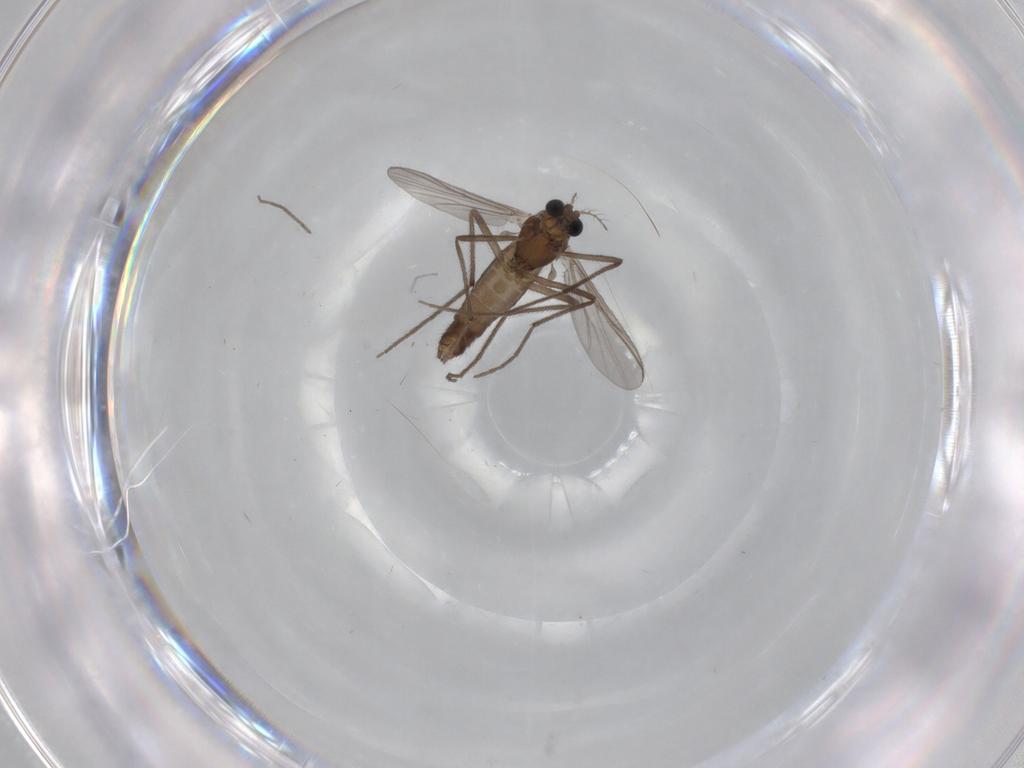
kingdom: Animalia
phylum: Arthropoda
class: Insecta
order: Diptera
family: Chironomidae
